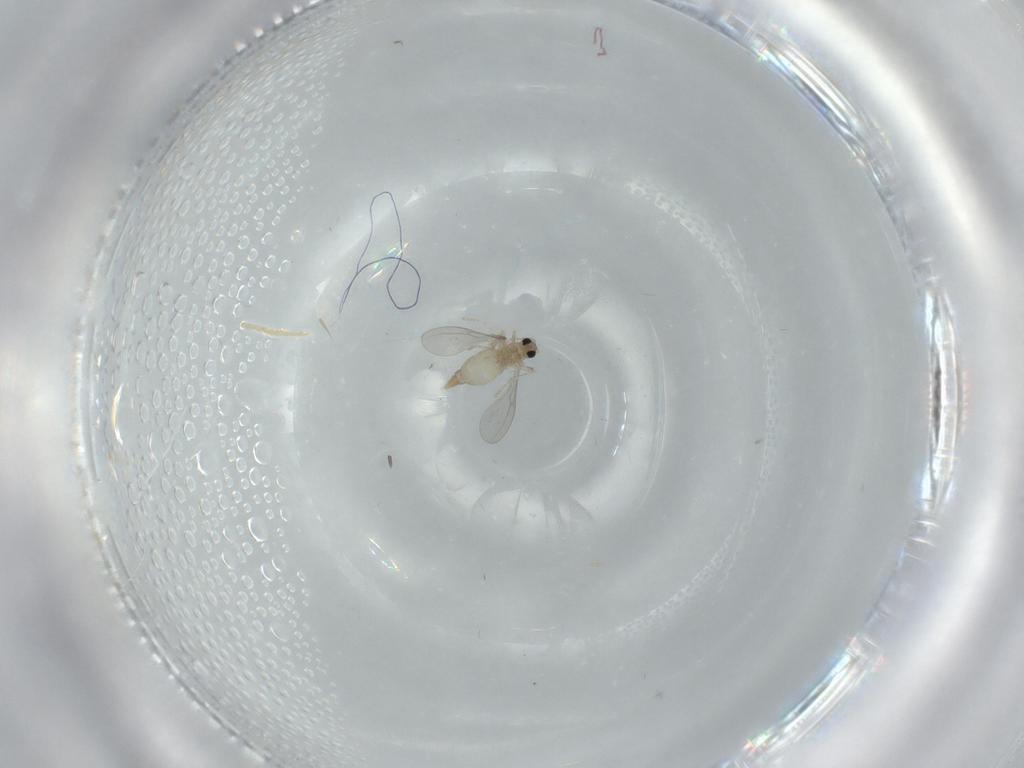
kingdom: Animalia
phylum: Arthropoda
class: Insecta
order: Diptera
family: Cecidomyiidae
